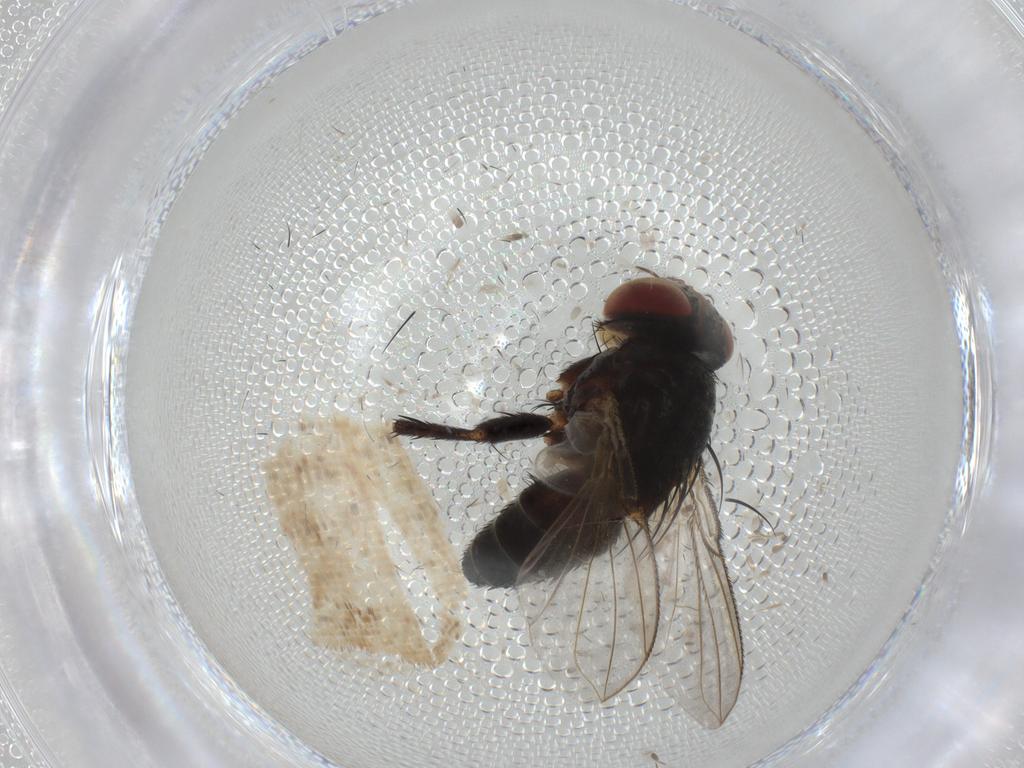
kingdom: Animalia
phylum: Arthropoda
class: Insecta
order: Diptera
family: Tachinidae
